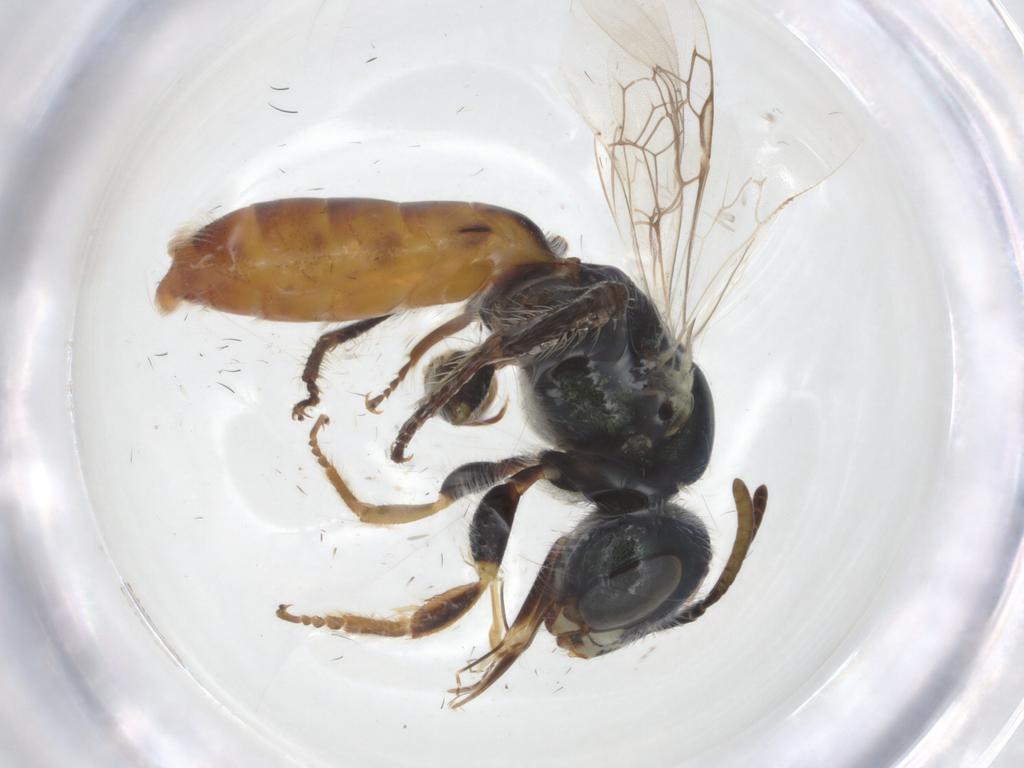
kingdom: Animalia
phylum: Arthropoda
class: Insecta
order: Hymenoptera
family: Andrenidae
